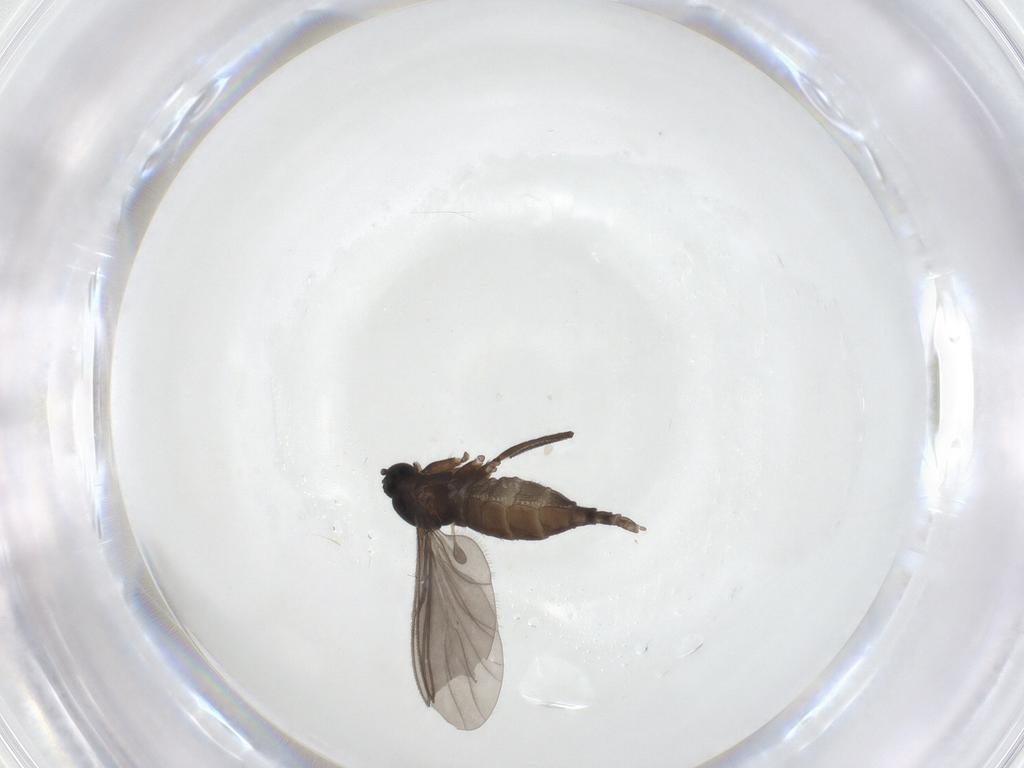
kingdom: Animalia
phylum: Arthropoda
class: Insecta
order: Diptera
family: Sciaridae
